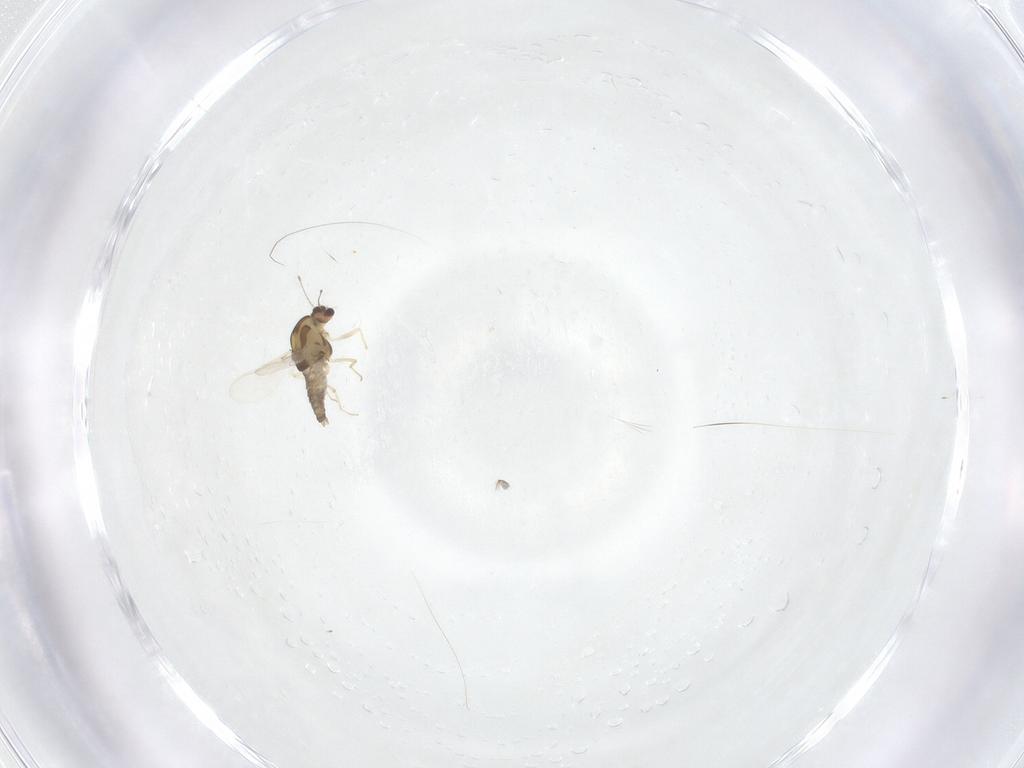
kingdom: Animalia
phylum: Arthropoda
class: Insecta
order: Diptera
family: Chironomidae
